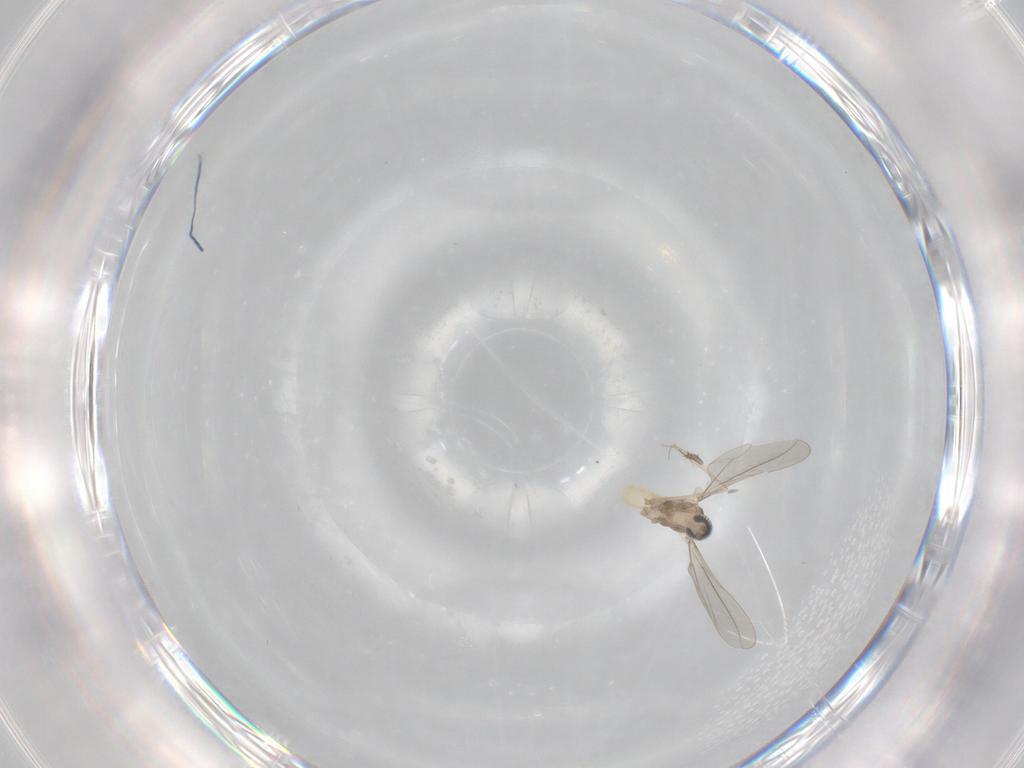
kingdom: Animalia
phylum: Arthropoda
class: Insecta
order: Diptera
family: Cecidomyiidae
